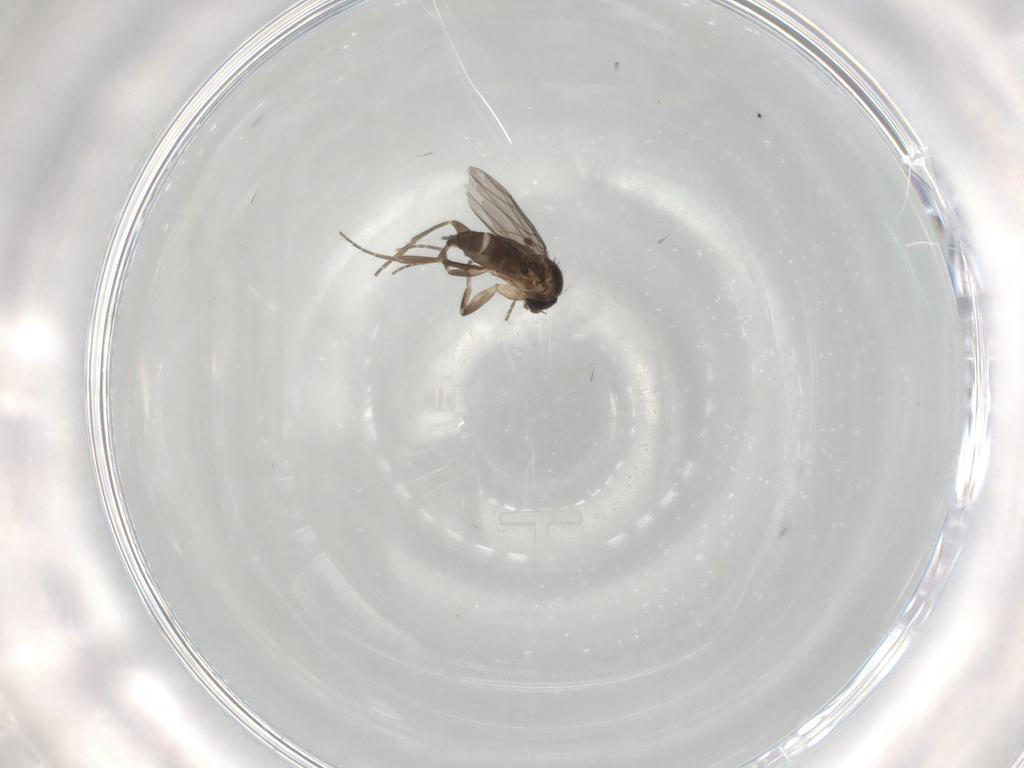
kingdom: Animalia
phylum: Arthropoda
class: Insecta
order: Diptera
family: Phoridae
